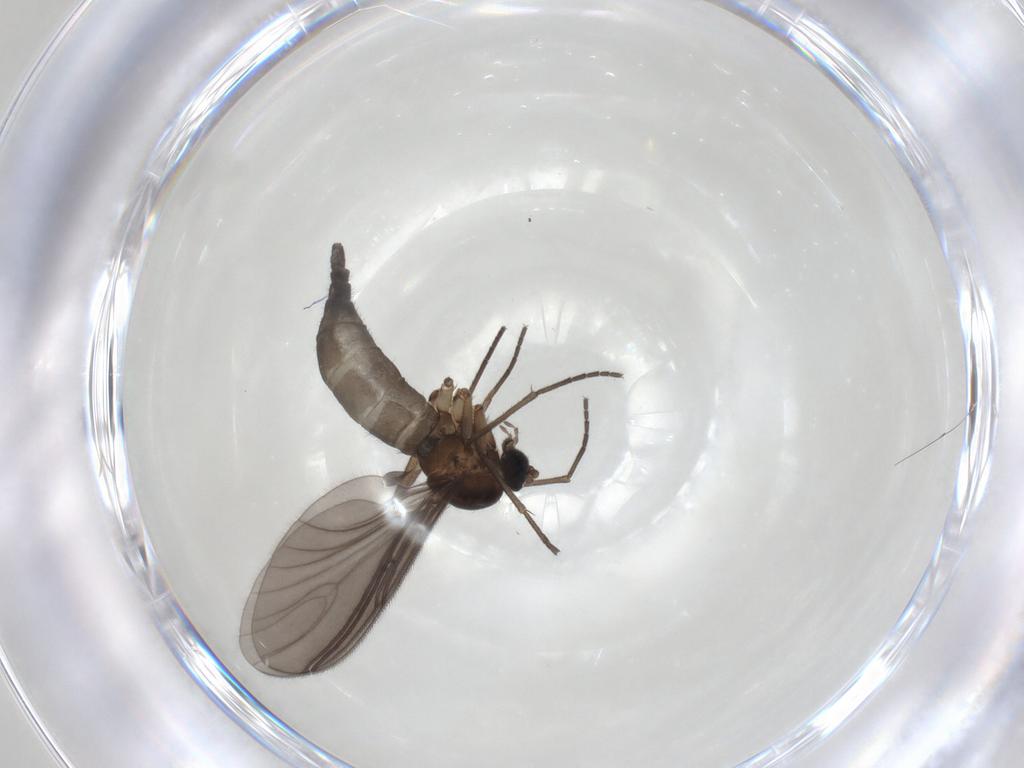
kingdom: Animalia
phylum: Arthropoda
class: Insecta
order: Diptera
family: Sciaridae
